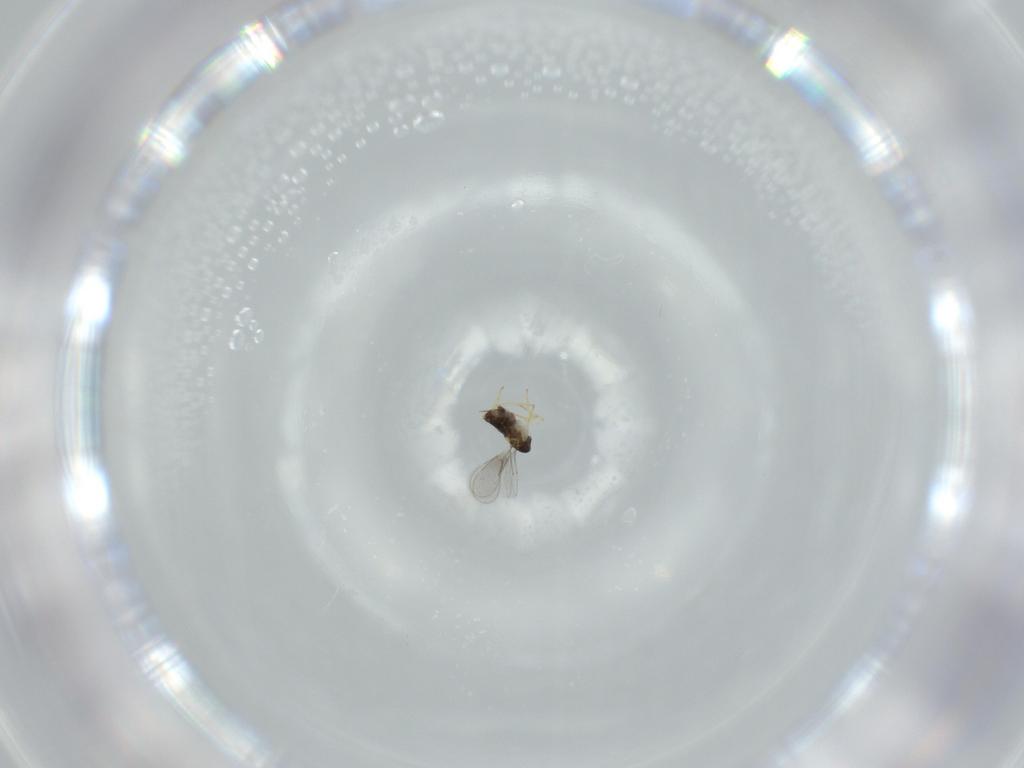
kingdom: Animalia
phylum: Arthropoda
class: Insecta
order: Hymenoptera
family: Aphelinidae
